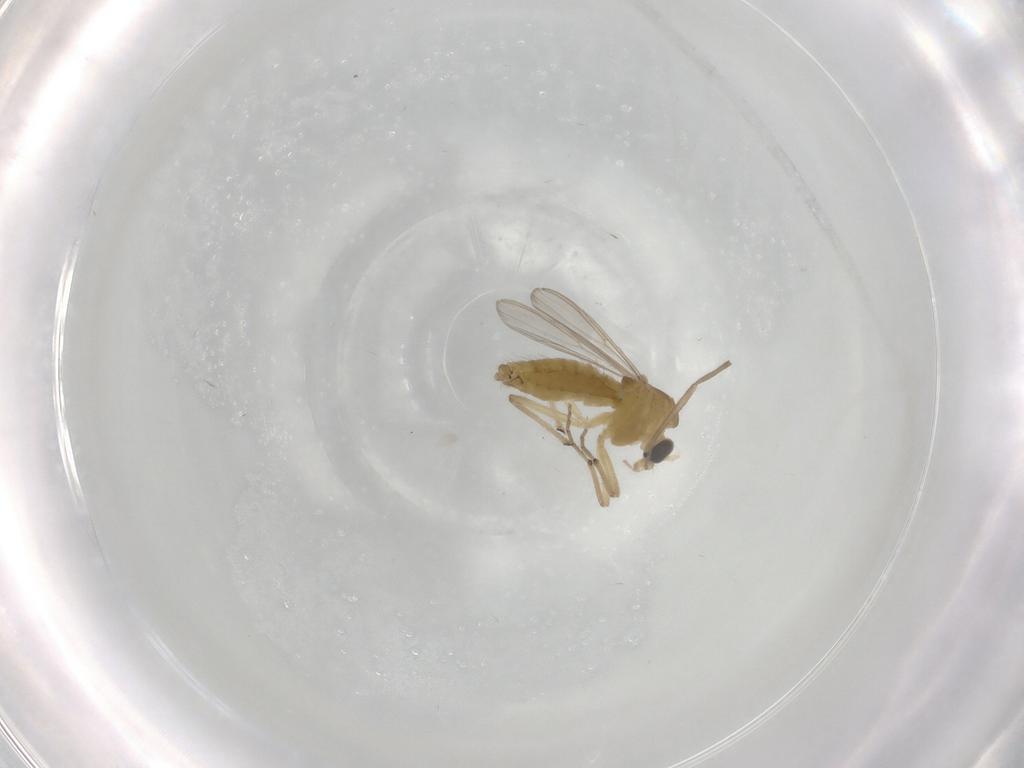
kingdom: Animalia
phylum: Arthropoda
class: Insecta
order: Diptera
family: Chironomidae
